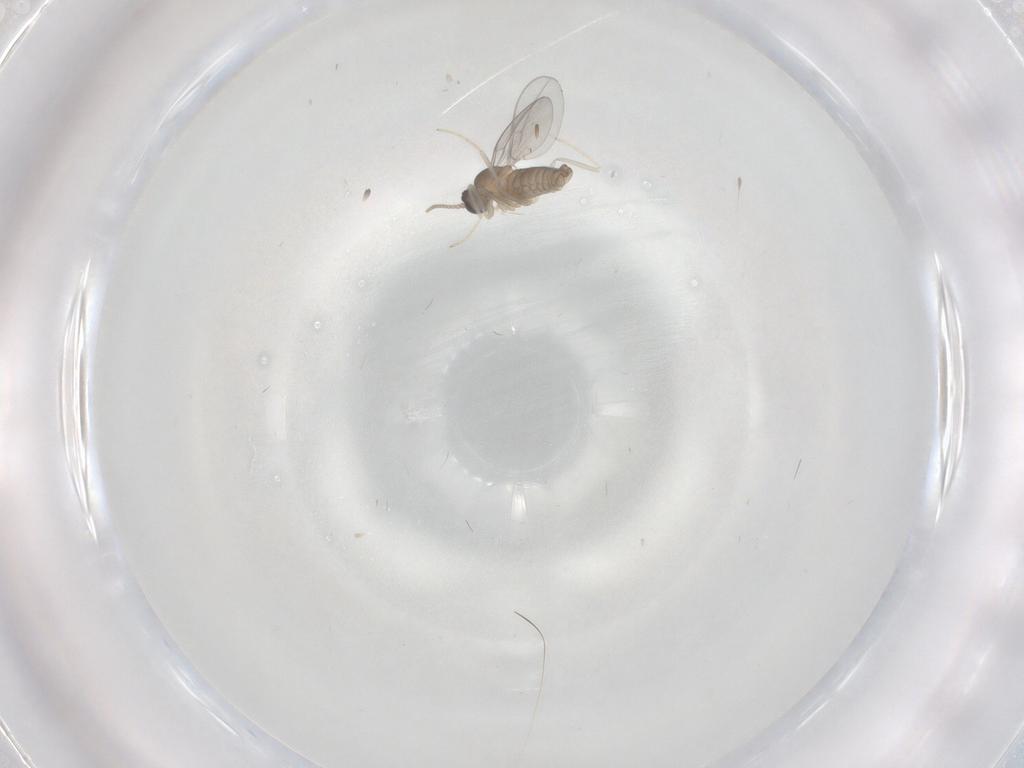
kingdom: Animalia
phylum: Arthropoda
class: Insecta
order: Diptera
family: Cecidomyiidae
